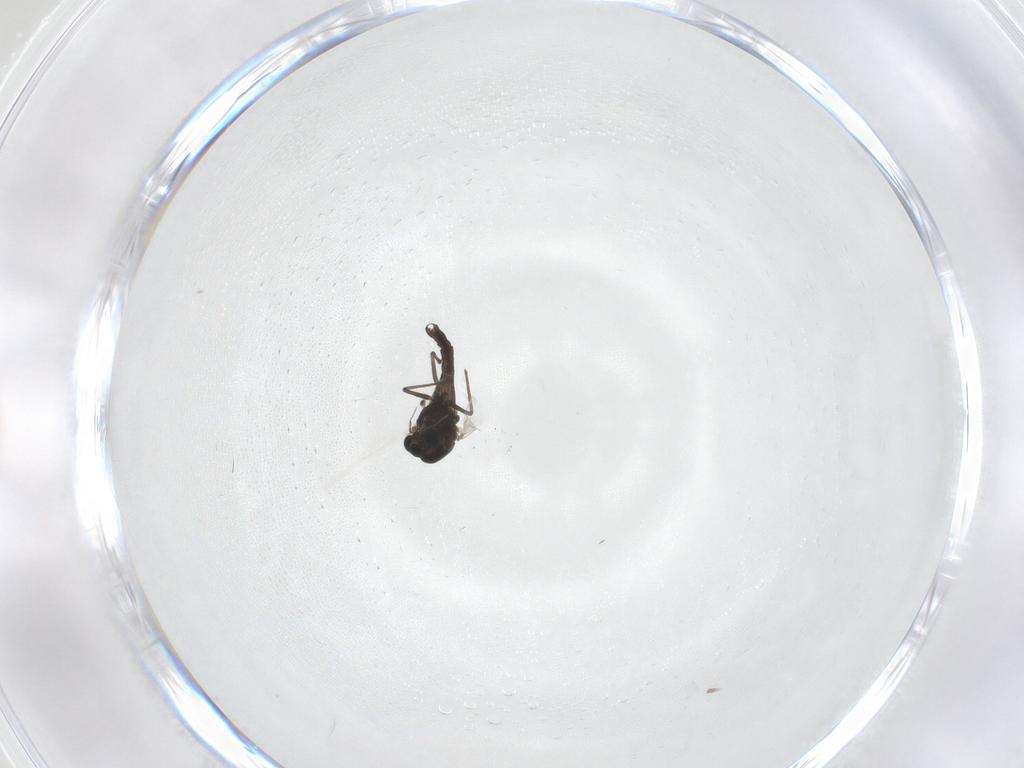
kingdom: Animalia
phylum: Arthropoda
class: Insecta
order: Diptera
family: Chironomidae
